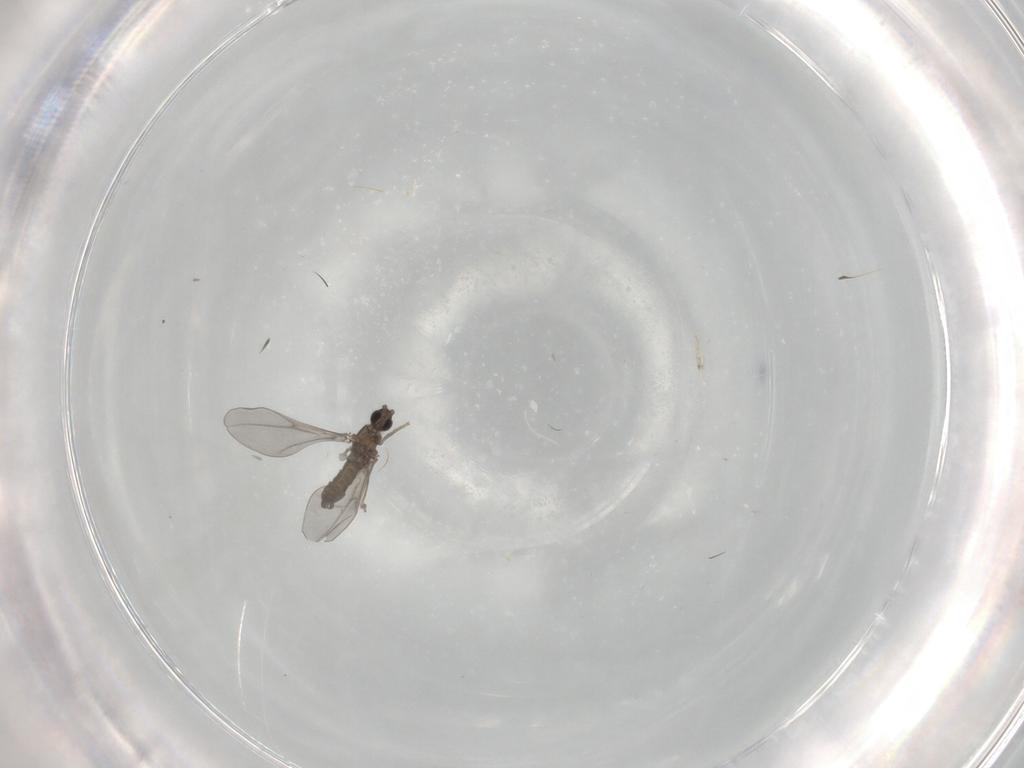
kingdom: Animalia
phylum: Arthropoda
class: Insecta
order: Diptera
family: Cecidomyiidae
